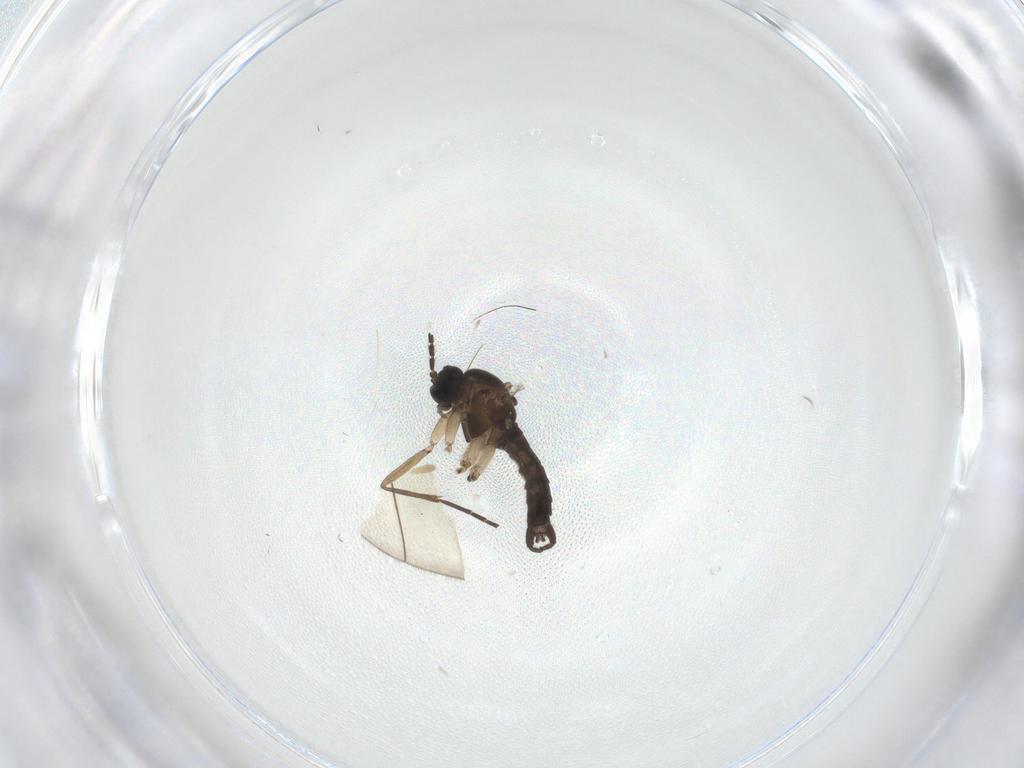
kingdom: Animalia
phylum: Arthropoda
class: Insecta
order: Diptera
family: Sciaridae
